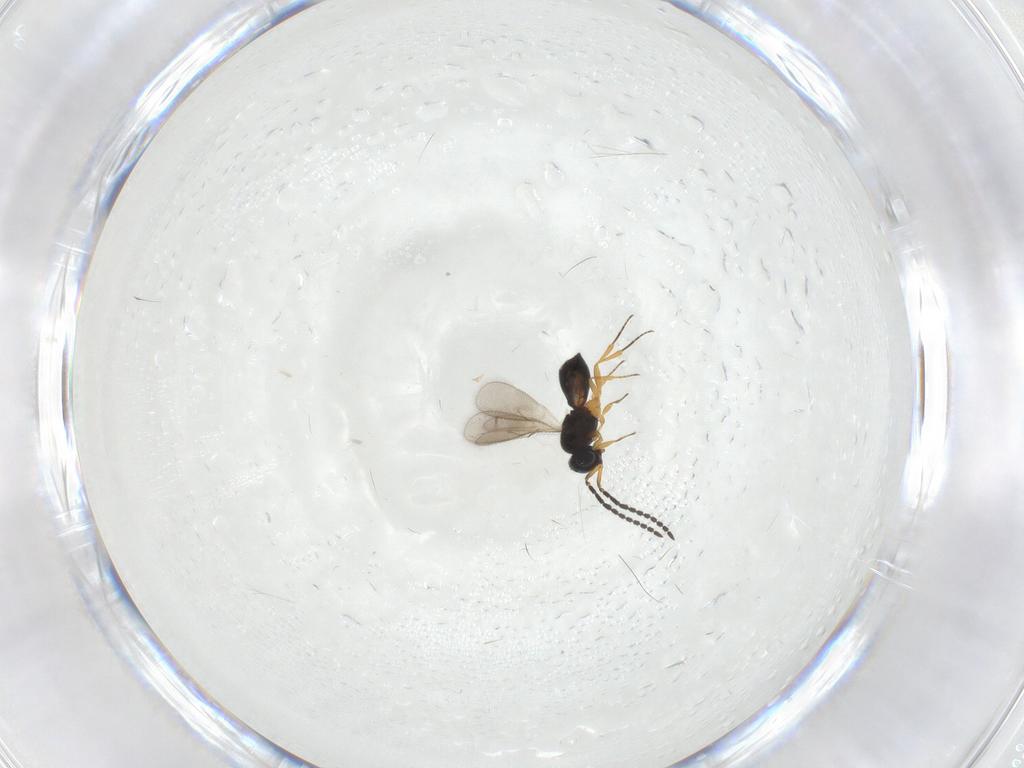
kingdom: Animalia
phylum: Arthropoda
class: Insecta
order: Hymenoptera
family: Scelionidae
